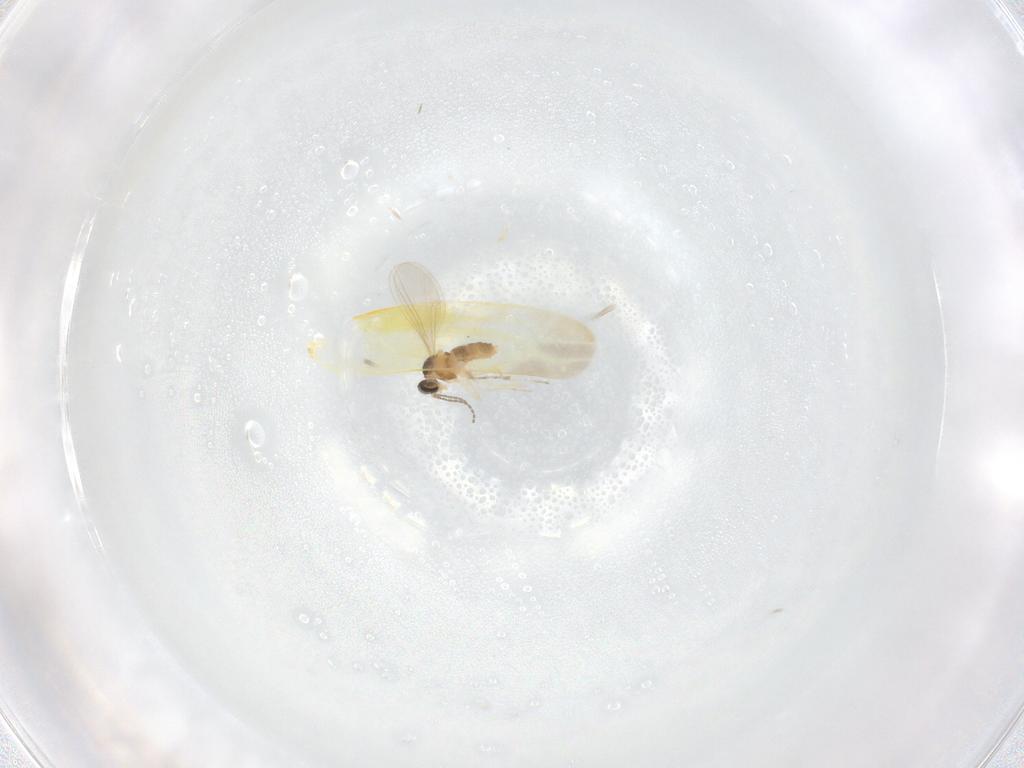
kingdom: Animalia
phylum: Arthropoda
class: Insecta
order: Diptera
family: Cecidomyiidae
